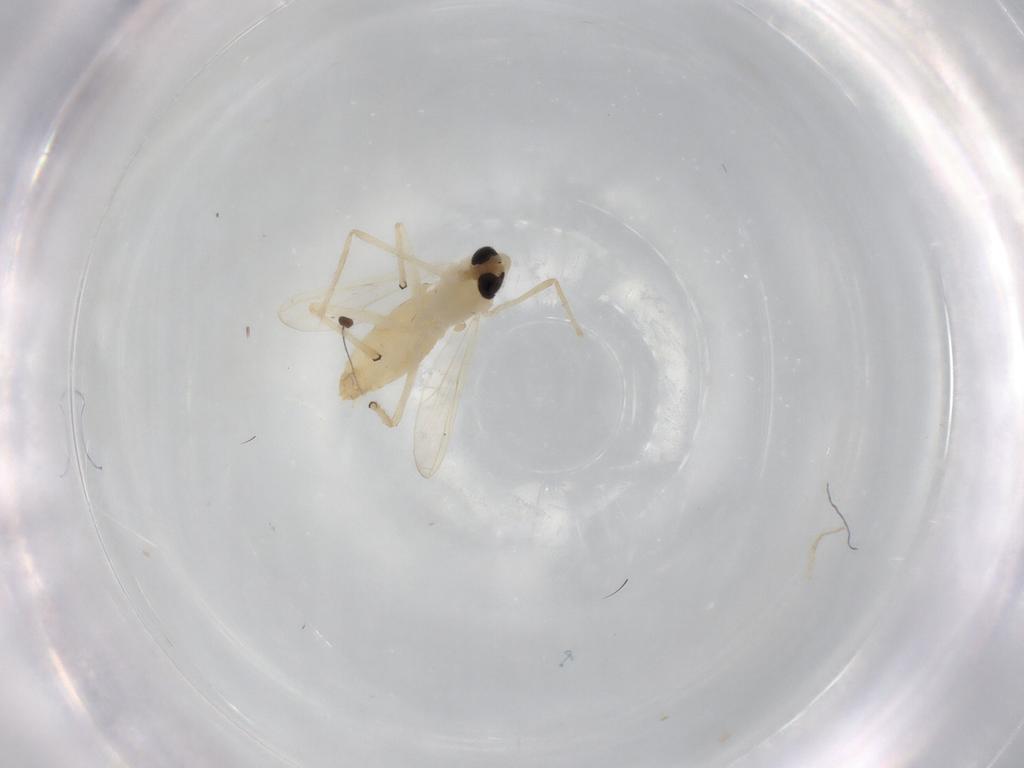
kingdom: Animalia
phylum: Arthropoda
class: Insecta
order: Diptera
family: Chironomidae
